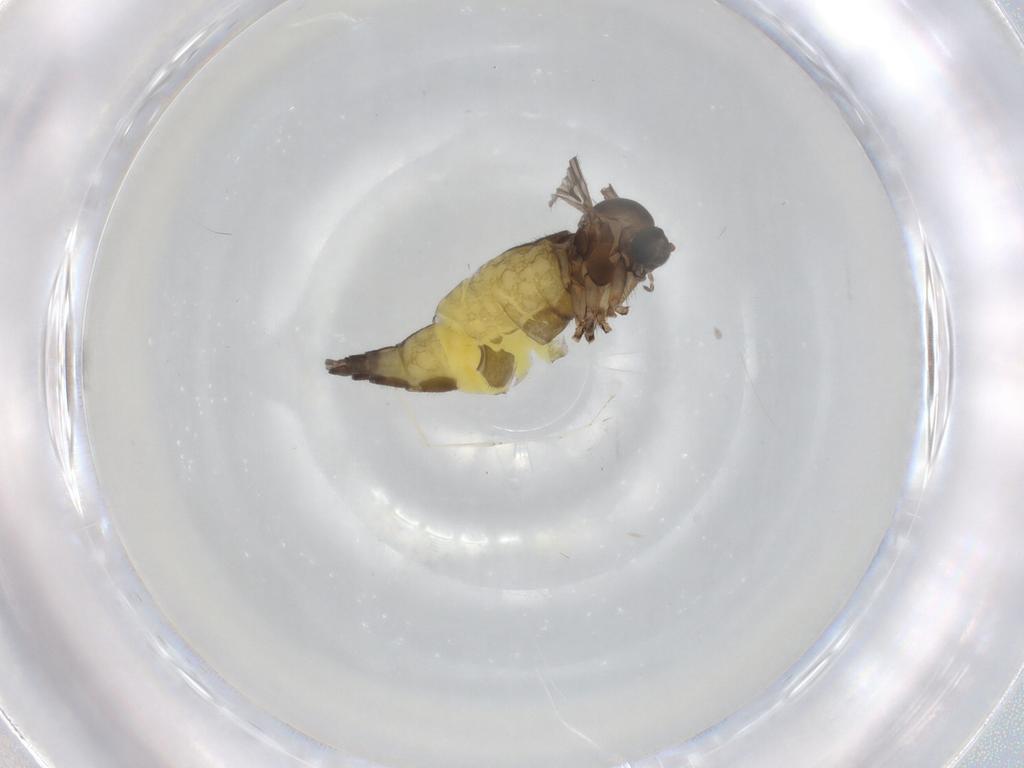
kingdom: Animalia
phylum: Arthropoda
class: Insecta
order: Diptera
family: Sciaridae
